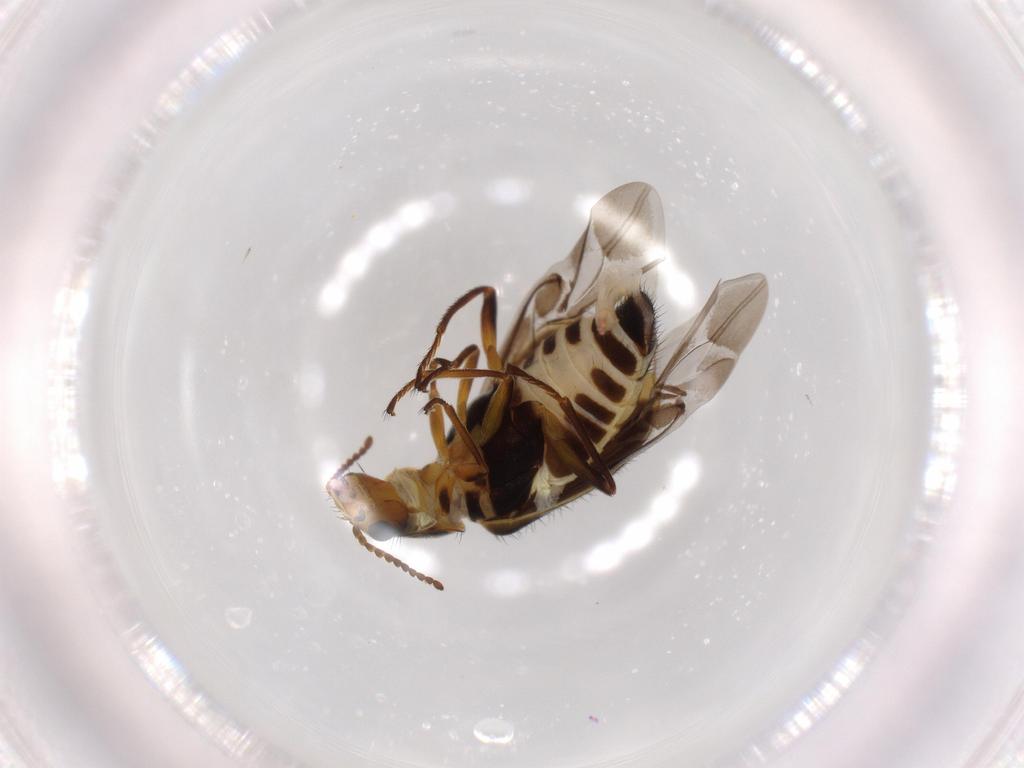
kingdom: Animalia
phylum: Arthropoda
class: Insecta
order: Coleoptera
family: Melyridae
